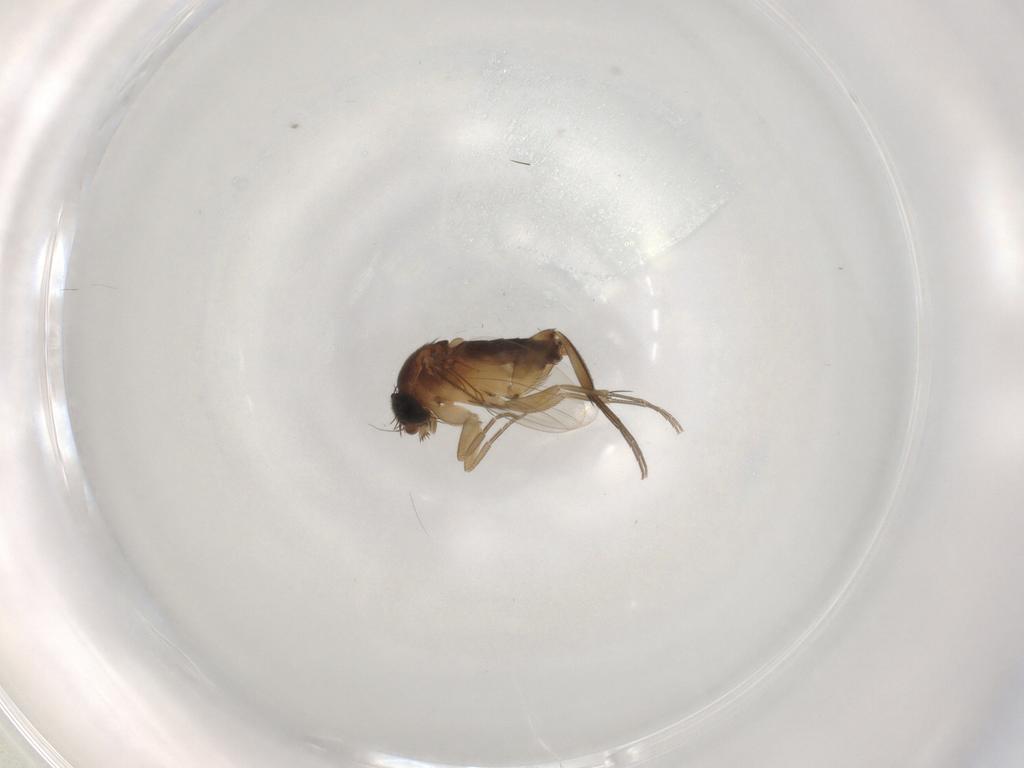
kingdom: Animalia
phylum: Arthropoda
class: Insecta
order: Diptera
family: Phoridae
